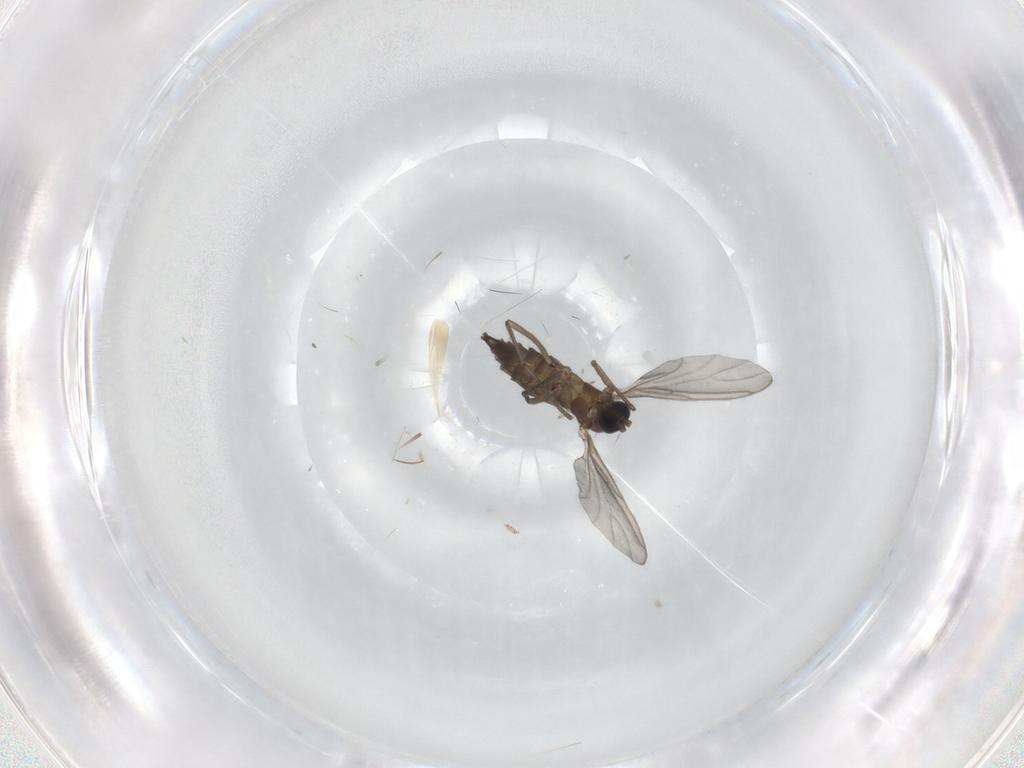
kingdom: Animalia
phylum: Arthropoda
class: Insecta
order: Diptera
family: Sciaridae
